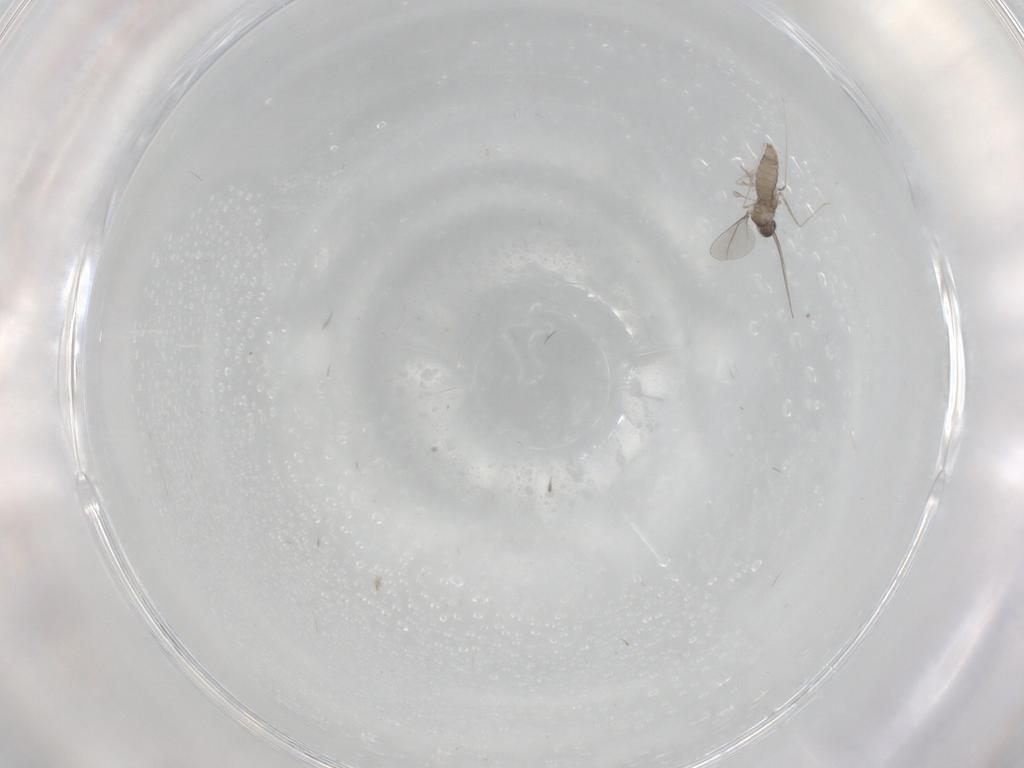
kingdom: Animalia
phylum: Arthropoda
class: Insecta
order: Diptera
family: Cecidomyiidae
